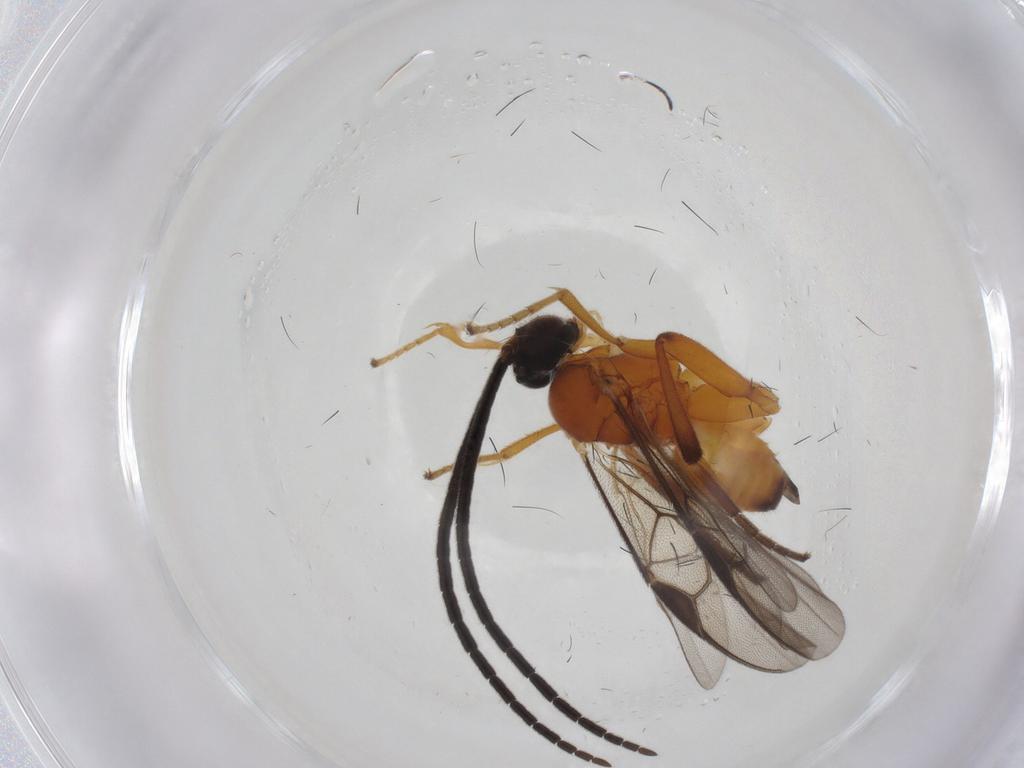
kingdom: Animalia
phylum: Arthropoda
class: Insecta
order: Hymenoptera
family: Braconidae
